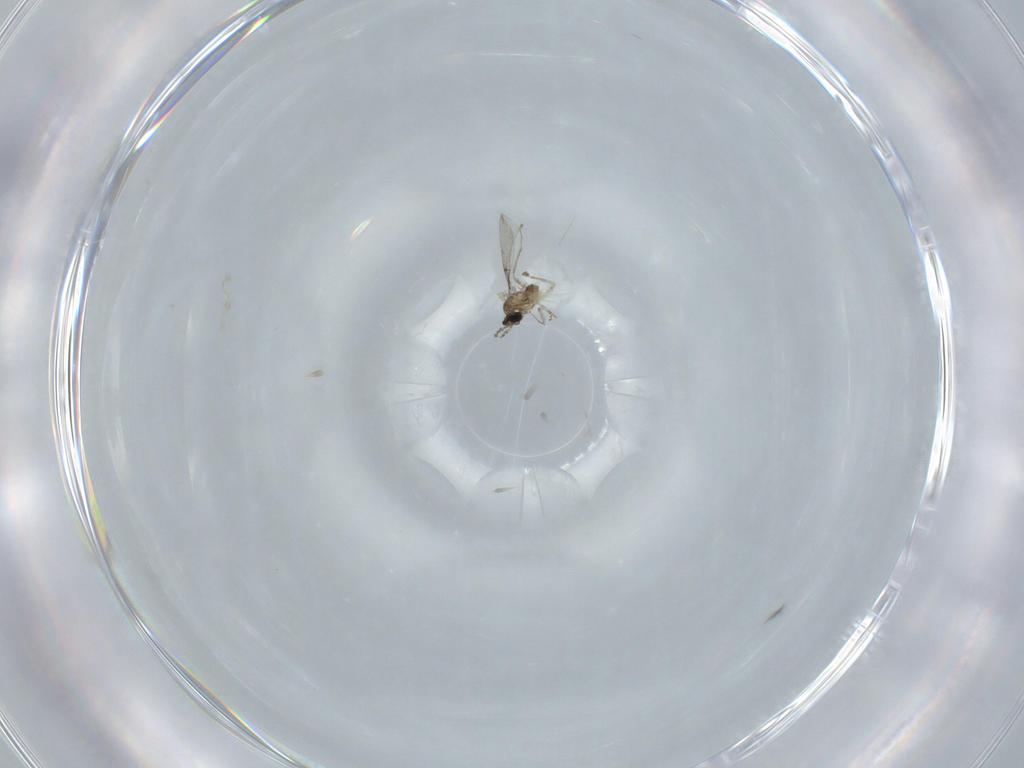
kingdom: Animalia
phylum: Arthropoda
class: Insecta
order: Diptera
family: Cecidomyiidae
